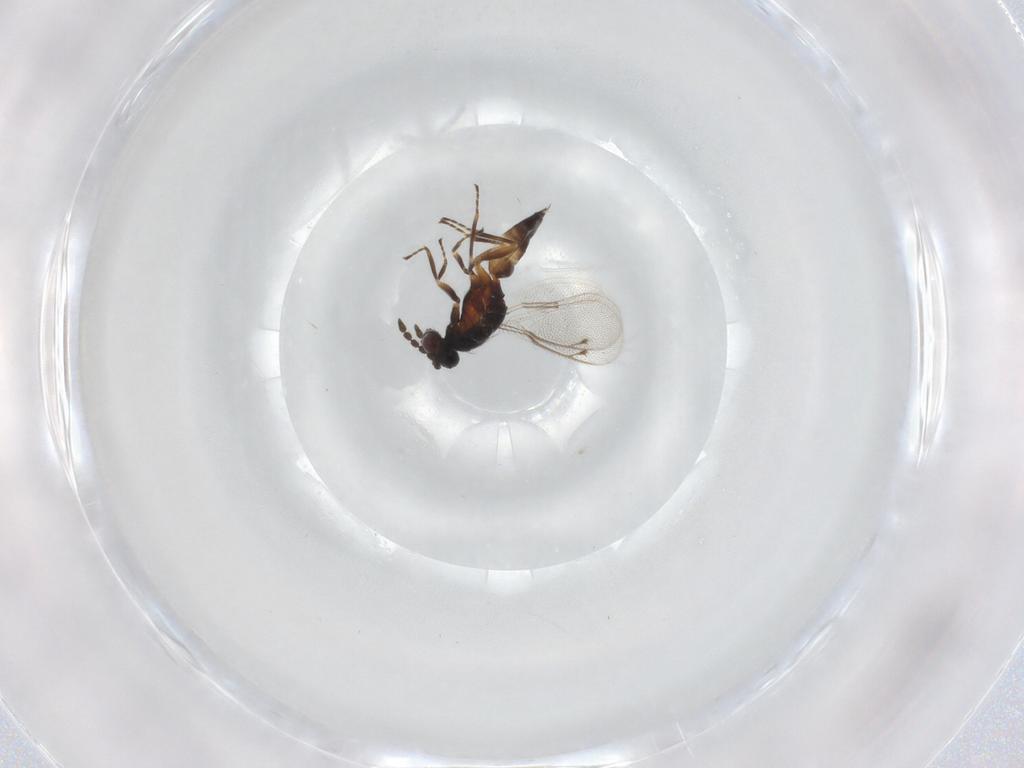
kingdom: Animalia
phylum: Arthropoda
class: Insecta
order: Hymenoptera
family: Eulophidae
